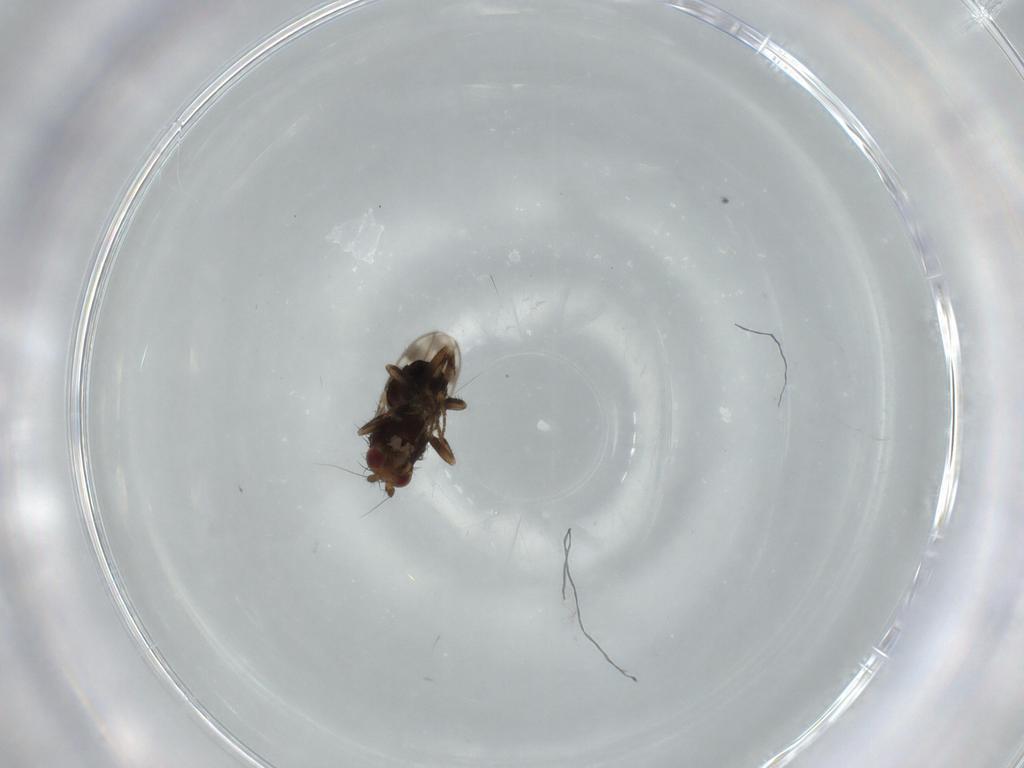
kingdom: Animalia
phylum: Arthropoda
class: Insecta
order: Diptera
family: Sphaeroceridae
